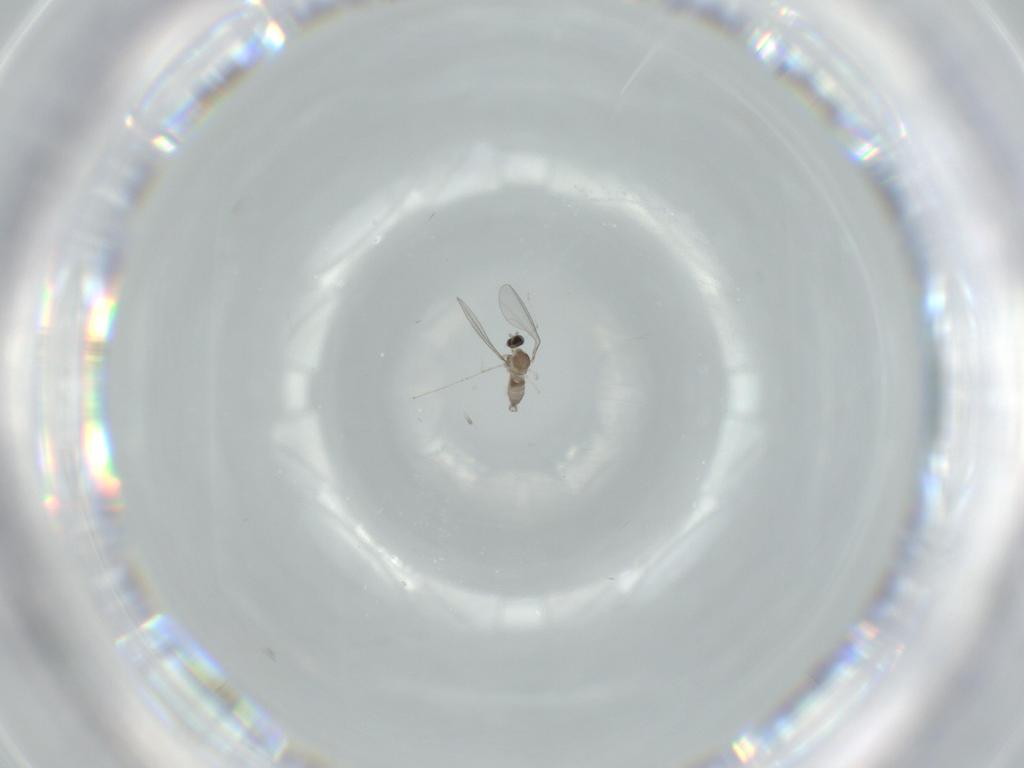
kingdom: Animalia
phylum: Arthropoda
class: Insecta
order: Diptera
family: Cecidomyiidae
